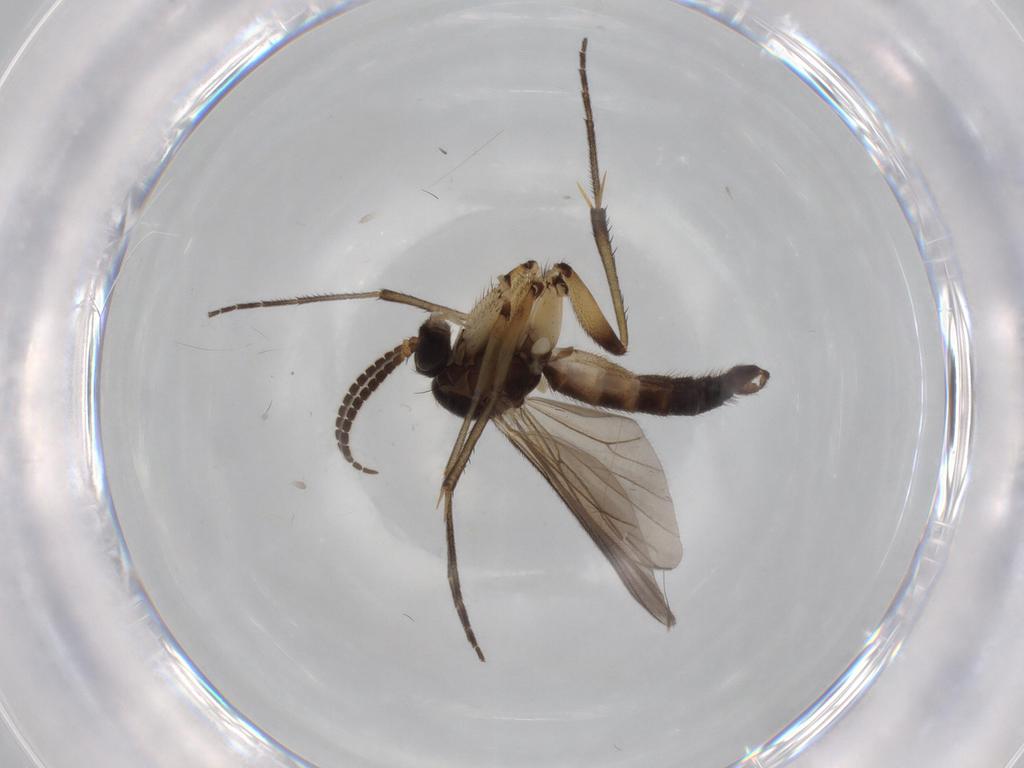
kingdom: Animalia
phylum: Arthropoda
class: Insecta
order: Diptera
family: Mycetophilidae
